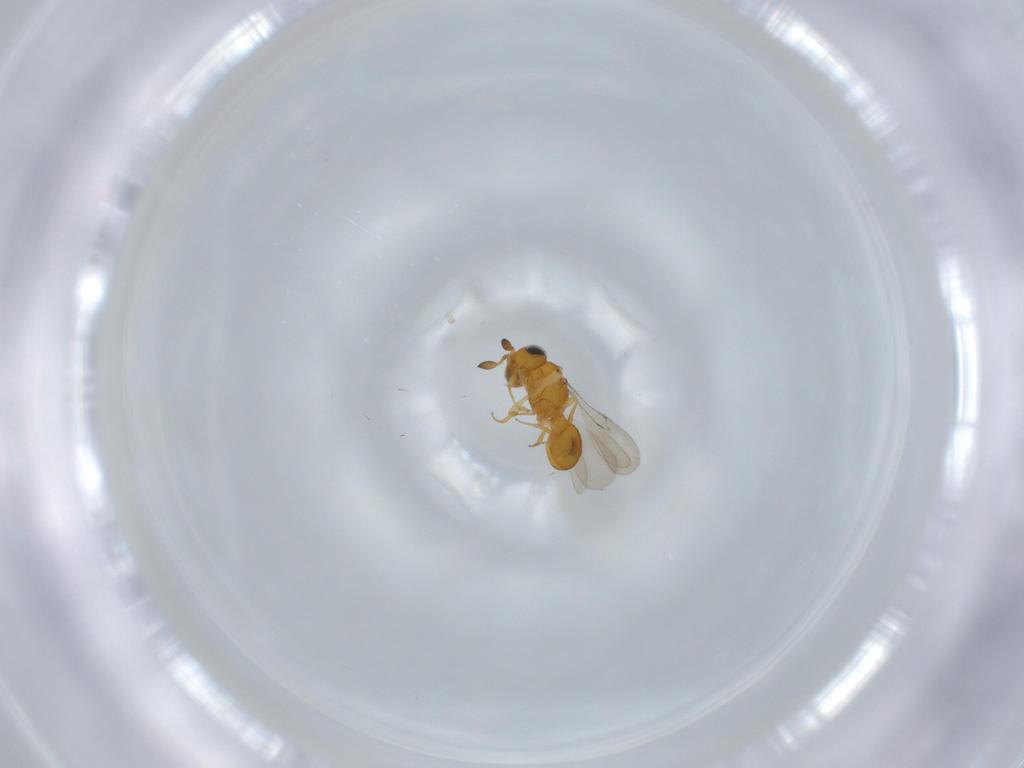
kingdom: Animalia
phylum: Arthropoda
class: Insecta
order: Hymenoptera
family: Scelionidae
